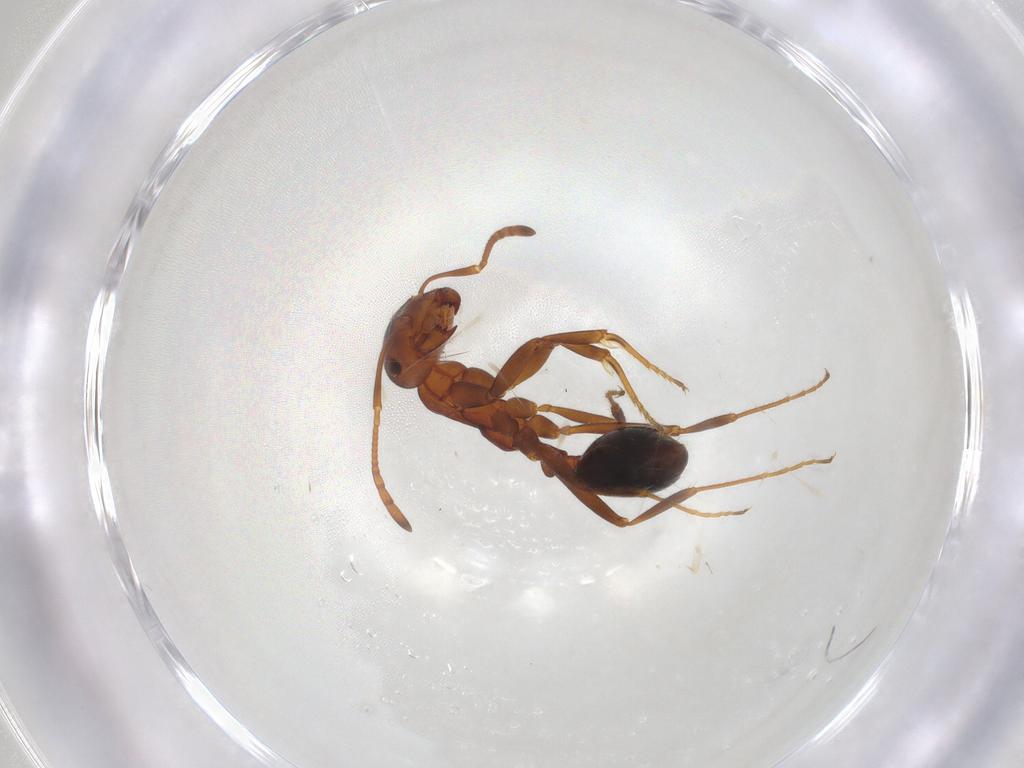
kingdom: Animalia
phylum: Arthropoda
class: Insecta
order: Hymenoptera
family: Formicidae
